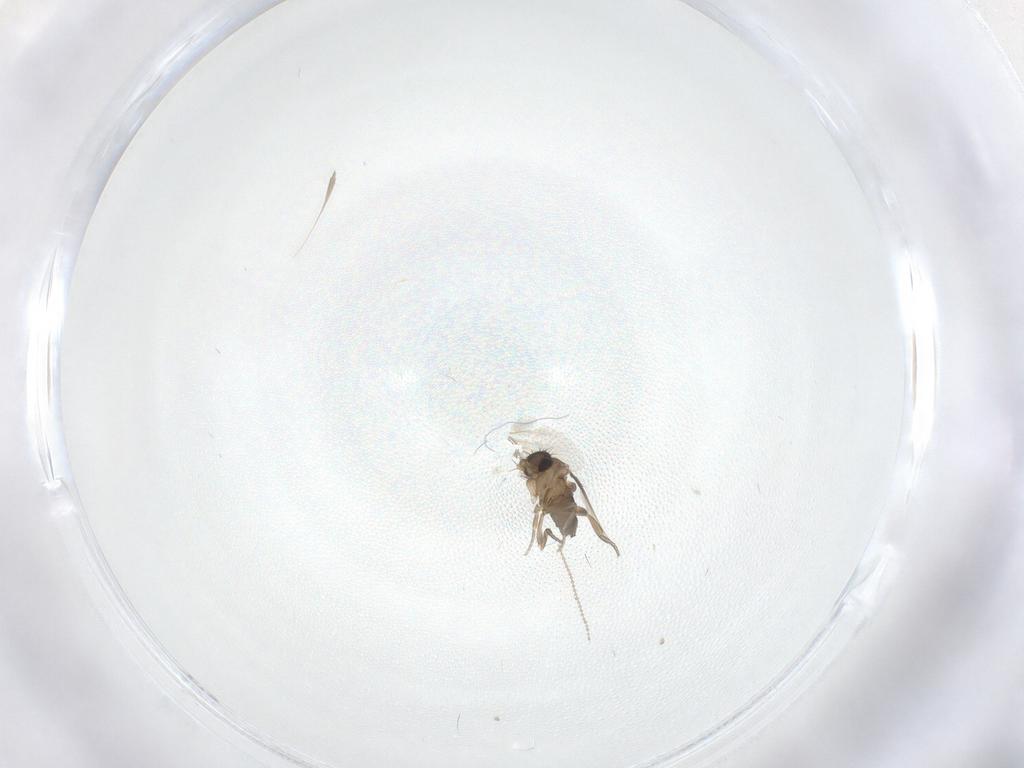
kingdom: Animalia
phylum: Arthropoda
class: Insecta
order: Diptera
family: Phoridae
